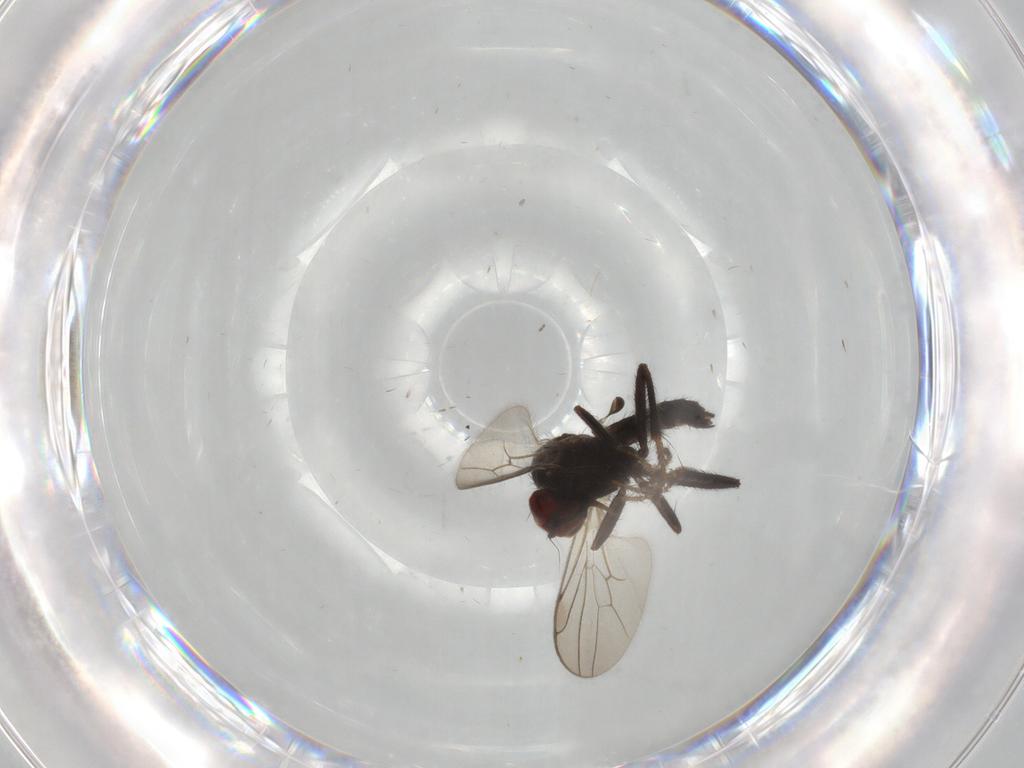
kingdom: Animalia
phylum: Arthropoda
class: Insecta
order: Diptera
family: Hybotidae
